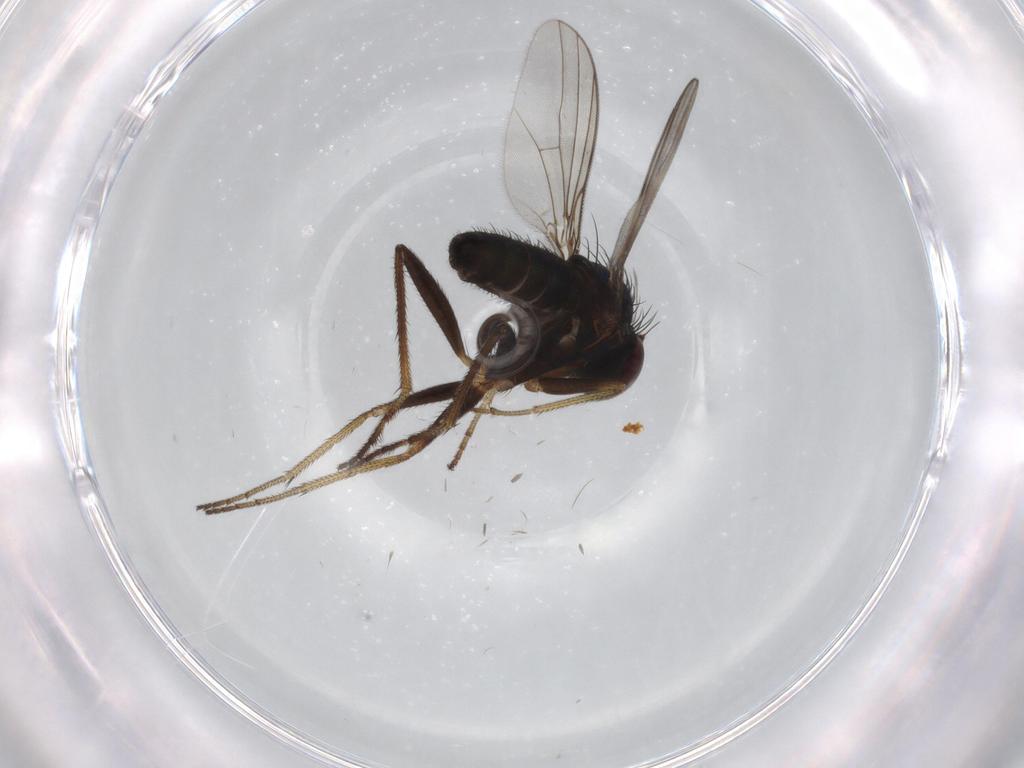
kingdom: Animalia
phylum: Arthropoda
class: Insecta
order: Diptera
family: Dolichopodidae
